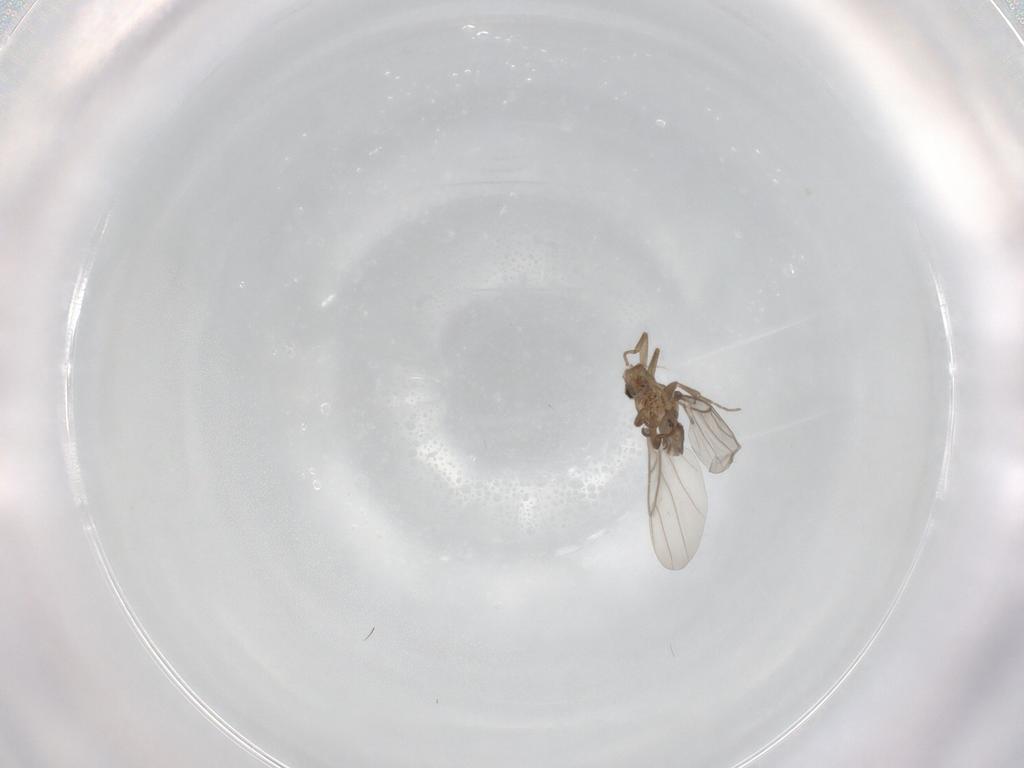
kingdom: Animalia
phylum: Arthropoda
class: Insecta
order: Diptera
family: Cecidomyiidae
